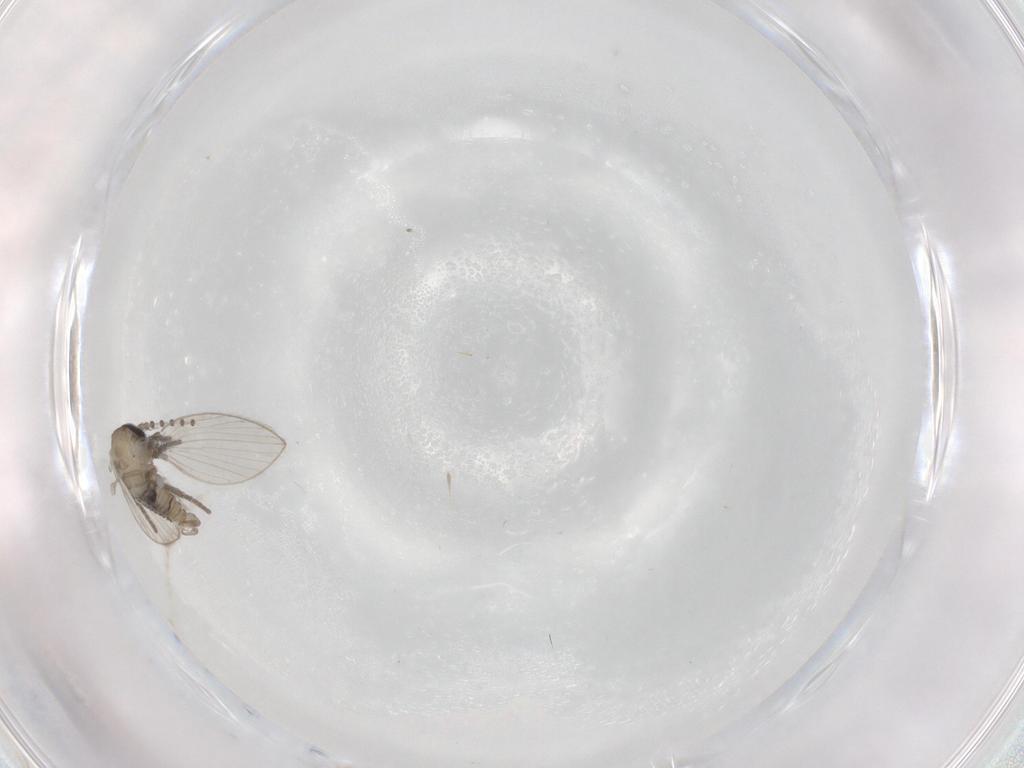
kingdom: Animalia
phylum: Arthropoda
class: Insecta
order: Diptera
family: Psychodidae
